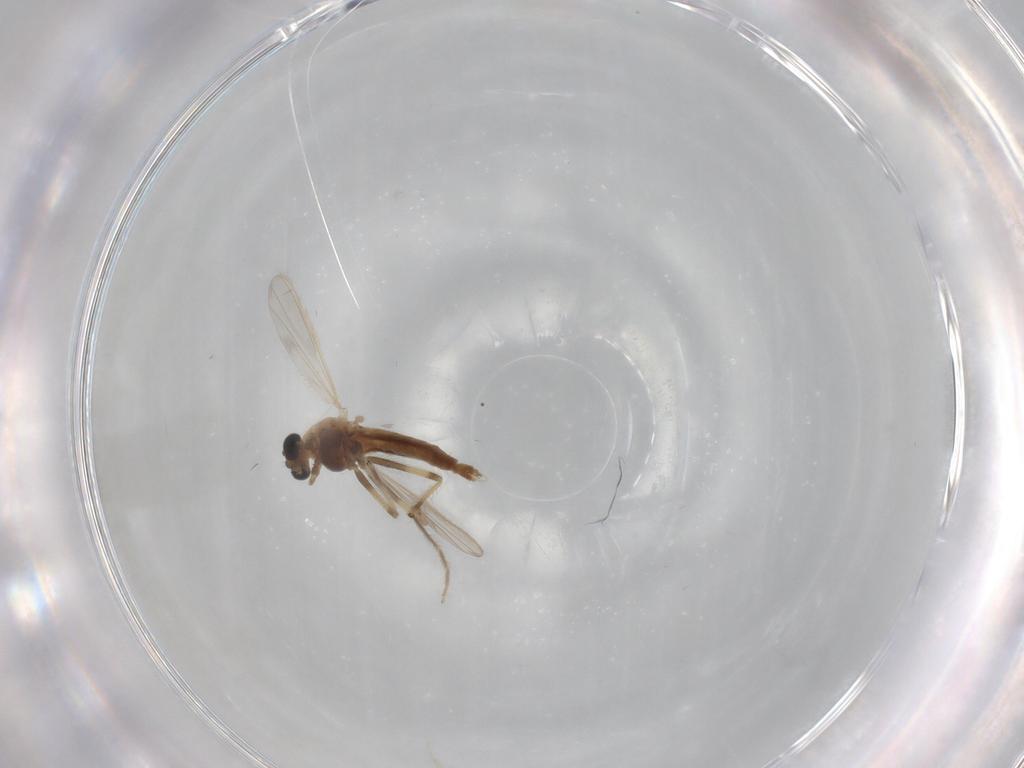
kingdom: Animalia
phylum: Arthropoda
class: Insecta
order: Diptera
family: Chironomidae
